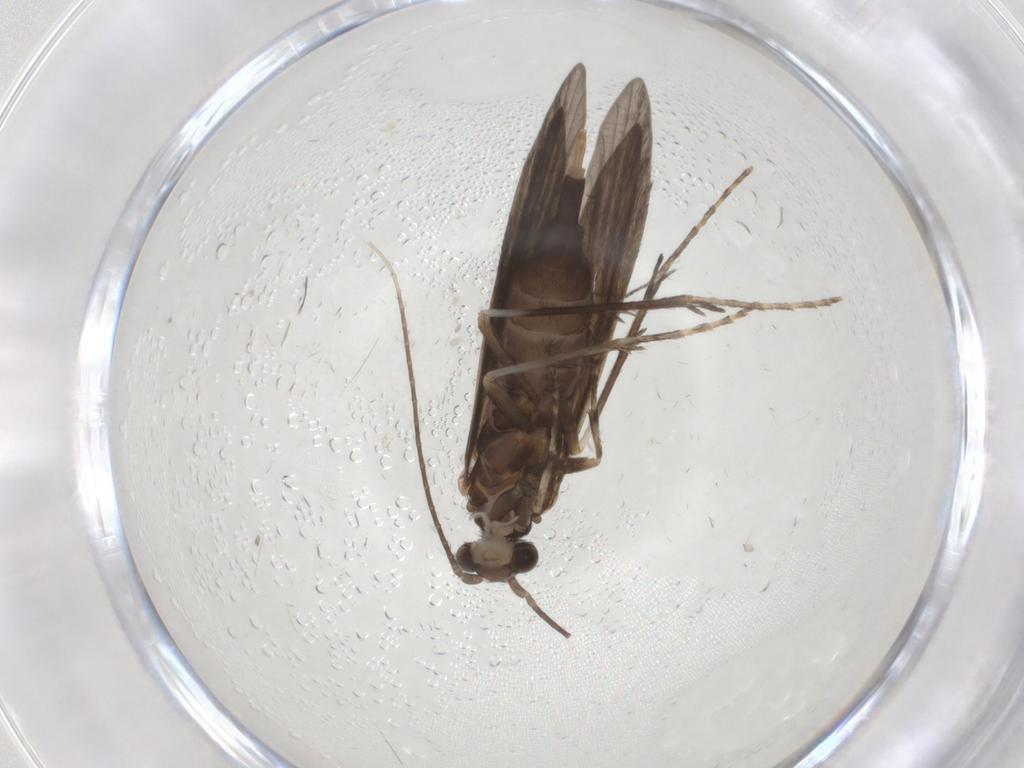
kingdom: Animalia
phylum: Arthropoda
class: Insecta
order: Trichoptera
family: Xiphocentronidae
